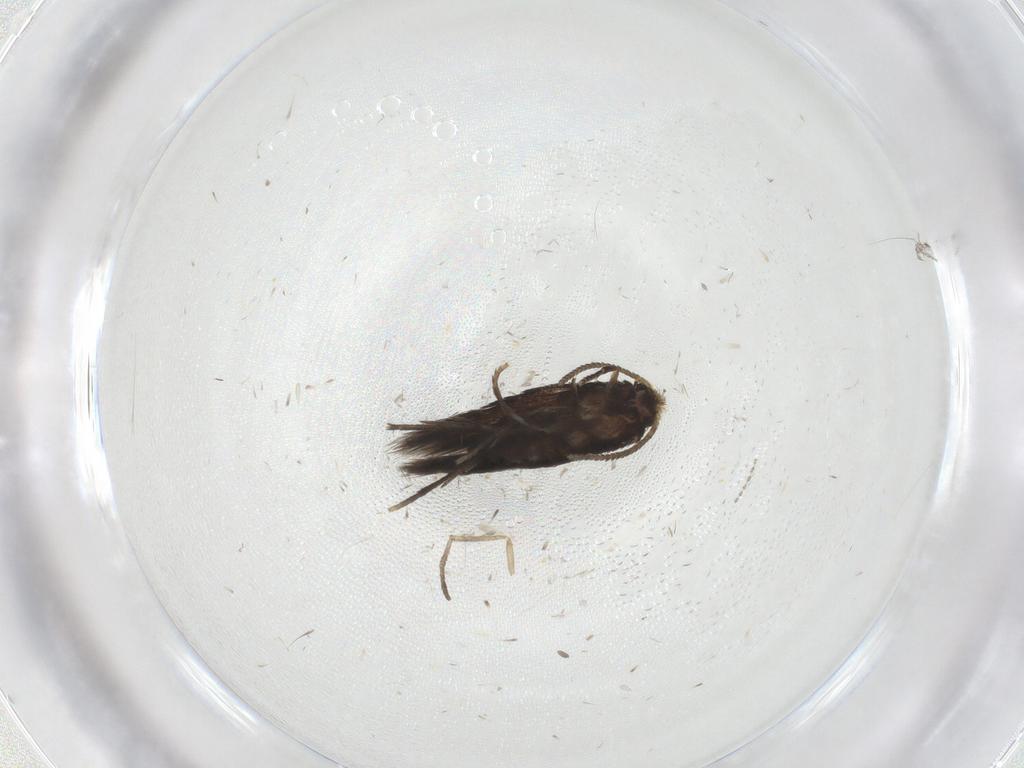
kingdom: Animalia
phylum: Arthropoda
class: Insecta
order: Lepidoptera
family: Nepticulidae
